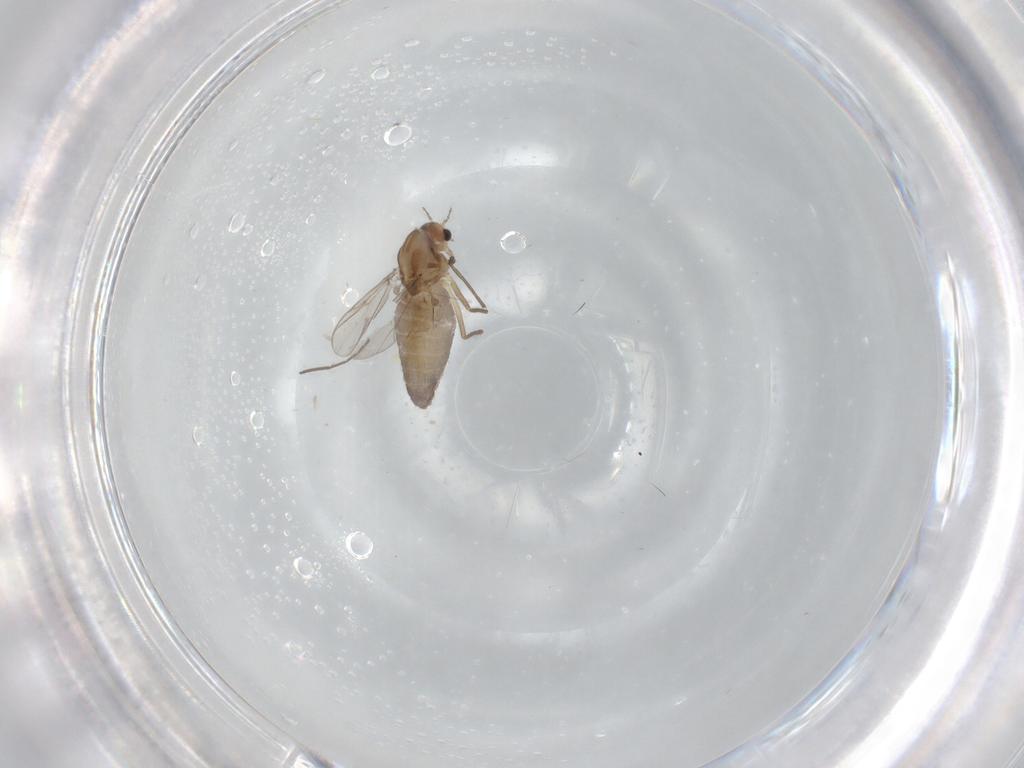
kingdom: Animalia
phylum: Arthropoda
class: Insecta
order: Diptera
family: Chironomidae
